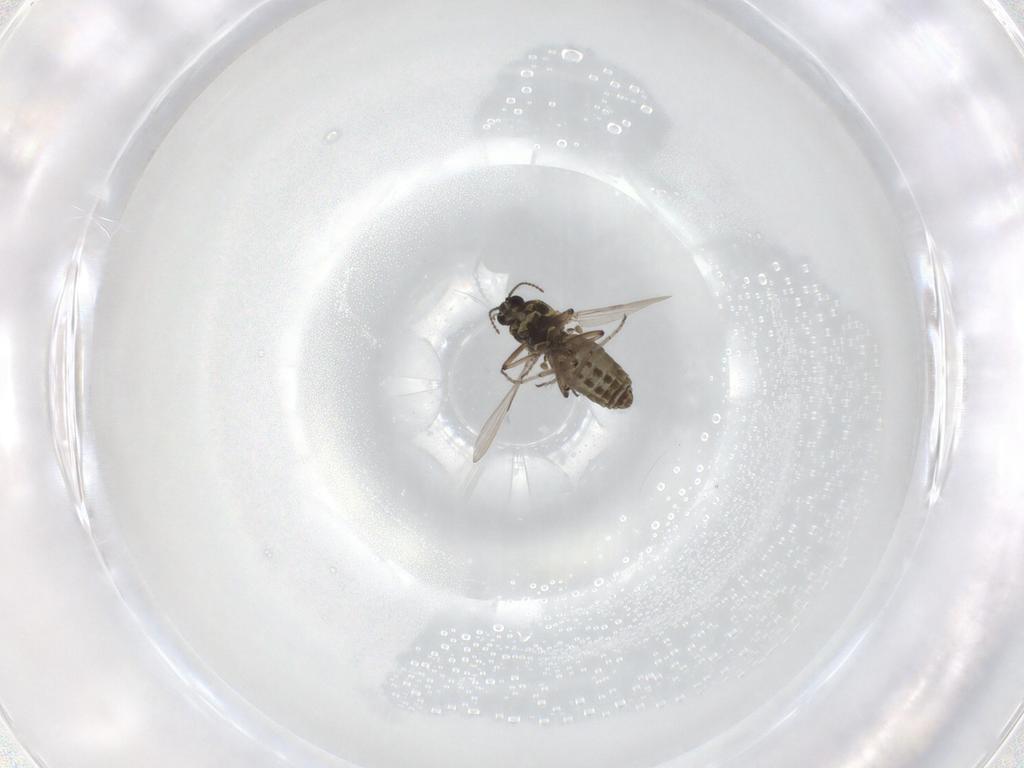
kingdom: Animalia
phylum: Arthropoda
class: Insecta
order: Diptera
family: Ceratopogonidae
